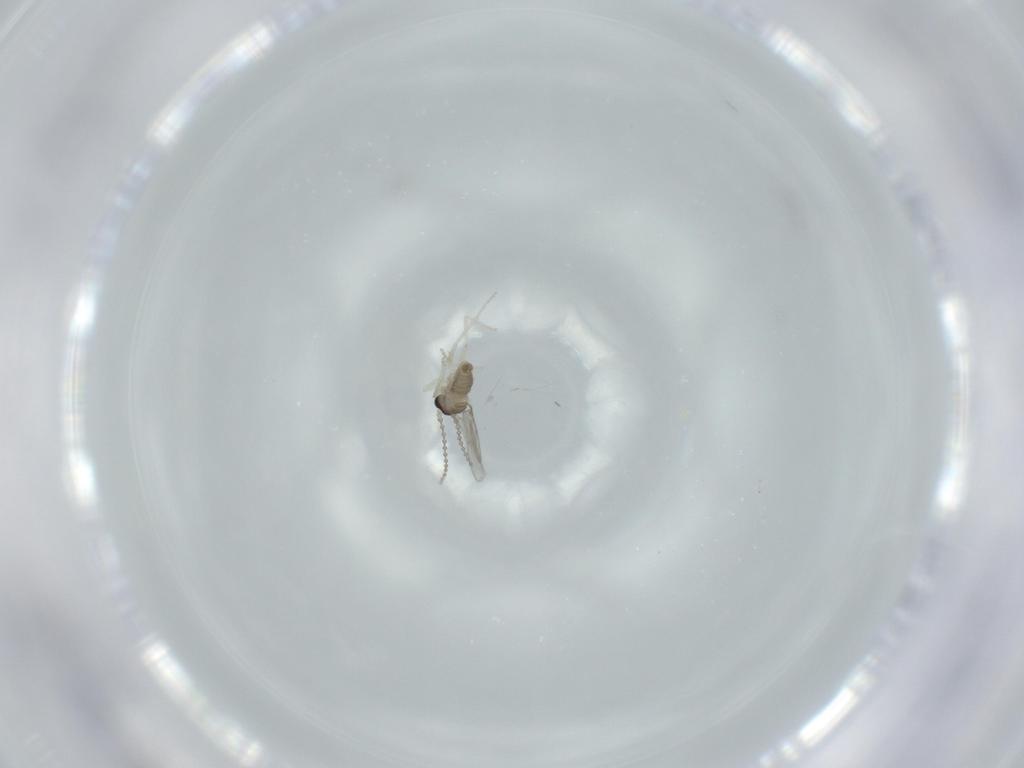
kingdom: Animalia
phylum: Arthropoda
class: Insecta
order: Diptera
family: Cecidomyiidae
